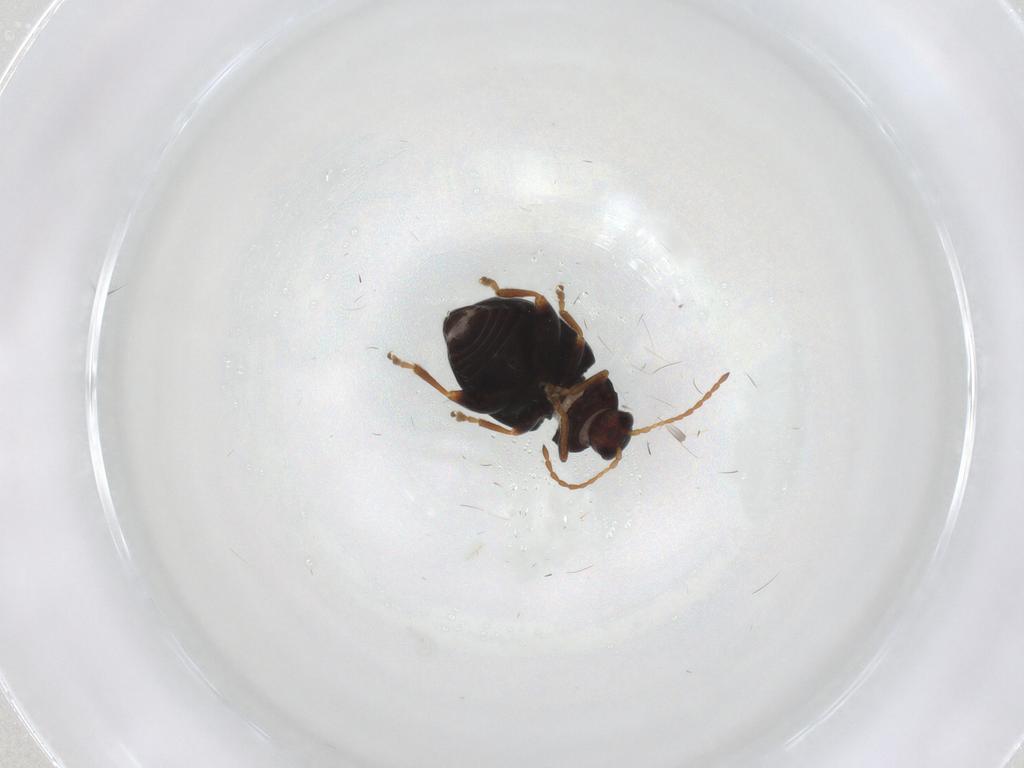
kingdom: Animalia
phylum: Arthropoda
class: Insecta
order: Coleoptera
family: Chrysomelidae
